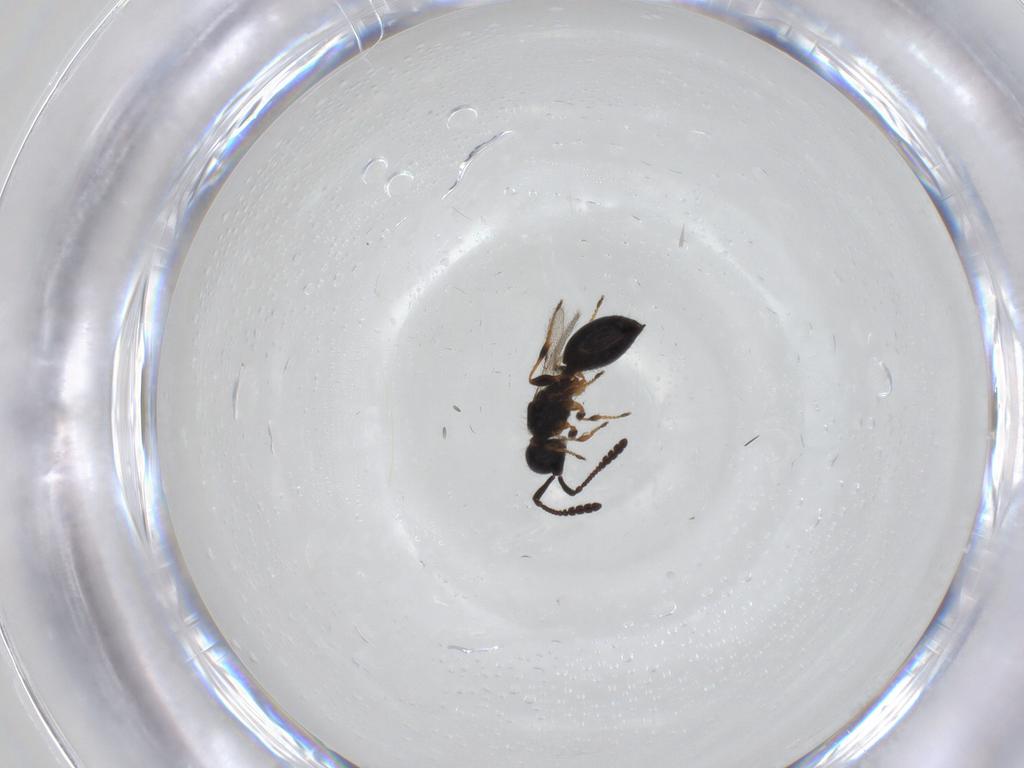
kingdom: Animalia
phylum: Arthropoda
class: Insecta
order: Hymenoptera
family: Diapriidae
